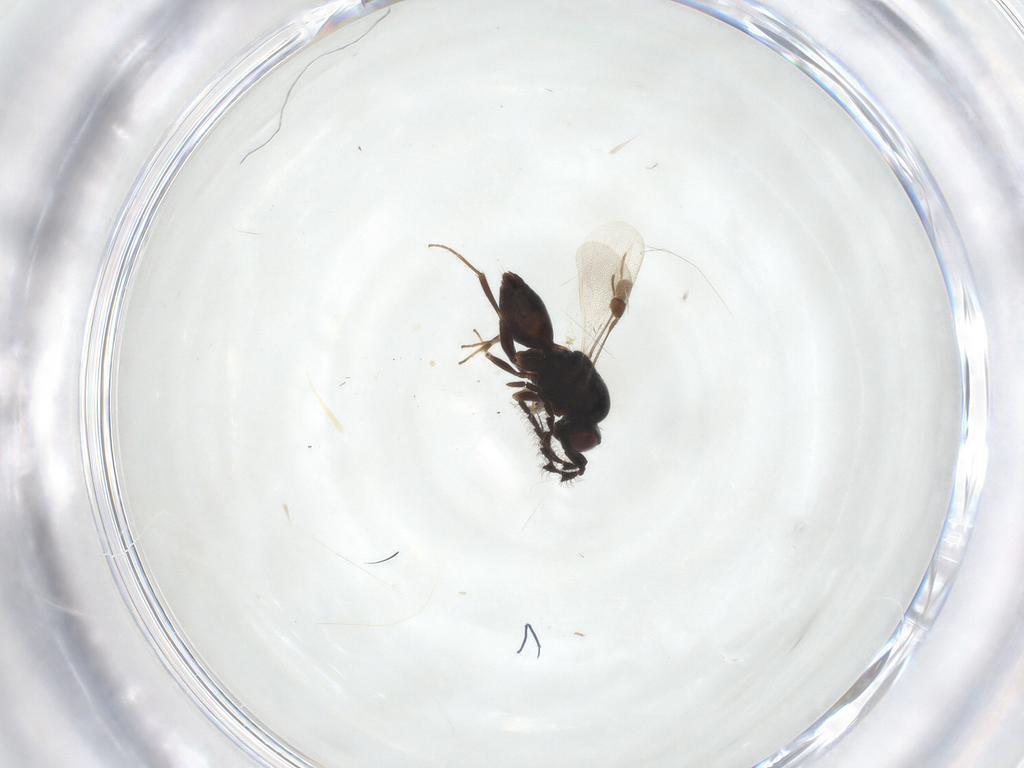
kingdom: Animalia
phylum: Arthropoda
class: Insecta
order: Hymenoptera
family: Megaspilidae
